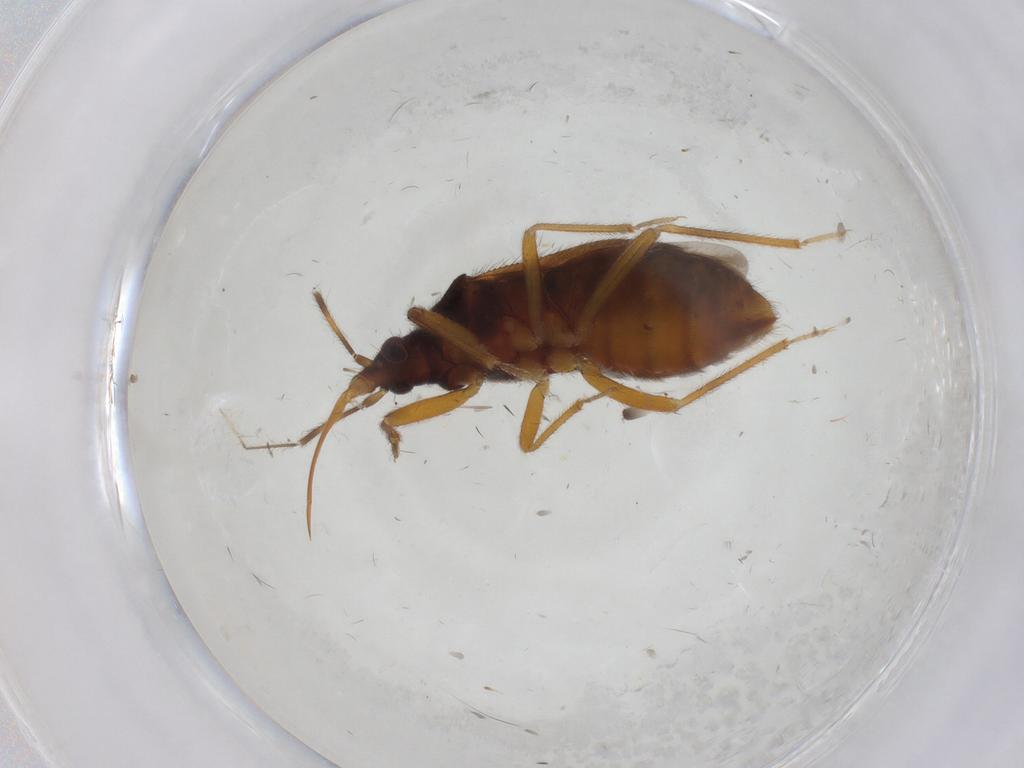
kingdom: Animalia
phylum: Arthropoda
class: Insecta
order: Hemiptera
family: Anthocoridae
